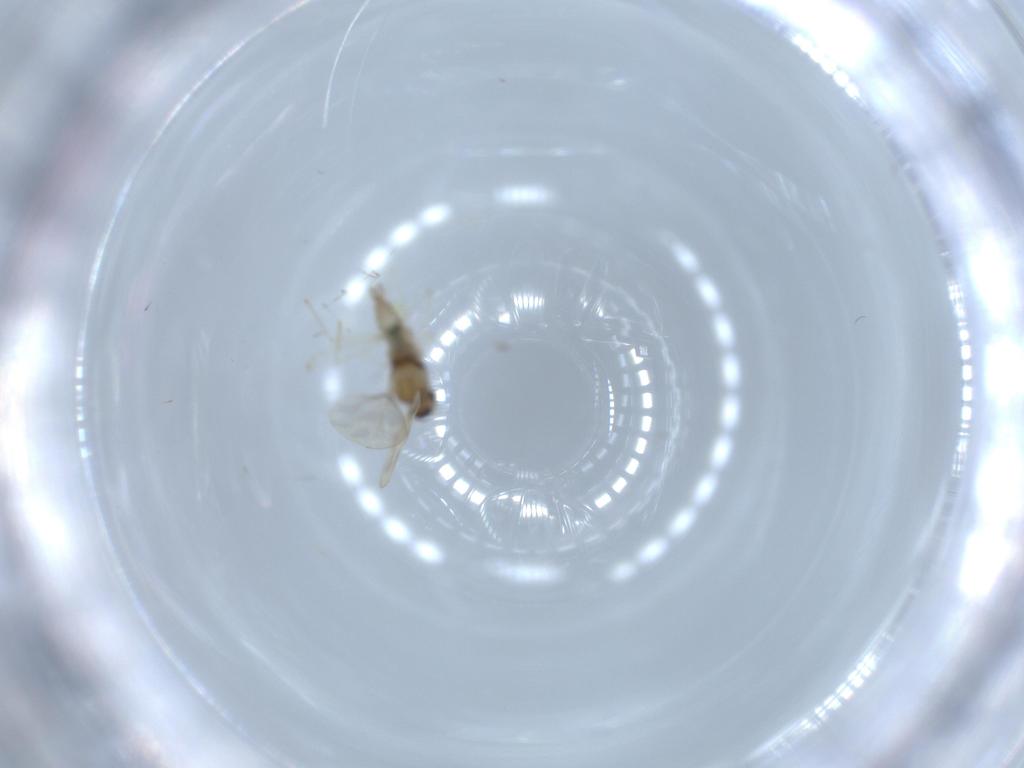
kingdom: Animalia
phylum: Arthropoda
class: Insecta
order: Diptera
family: Cecidomyiidae
